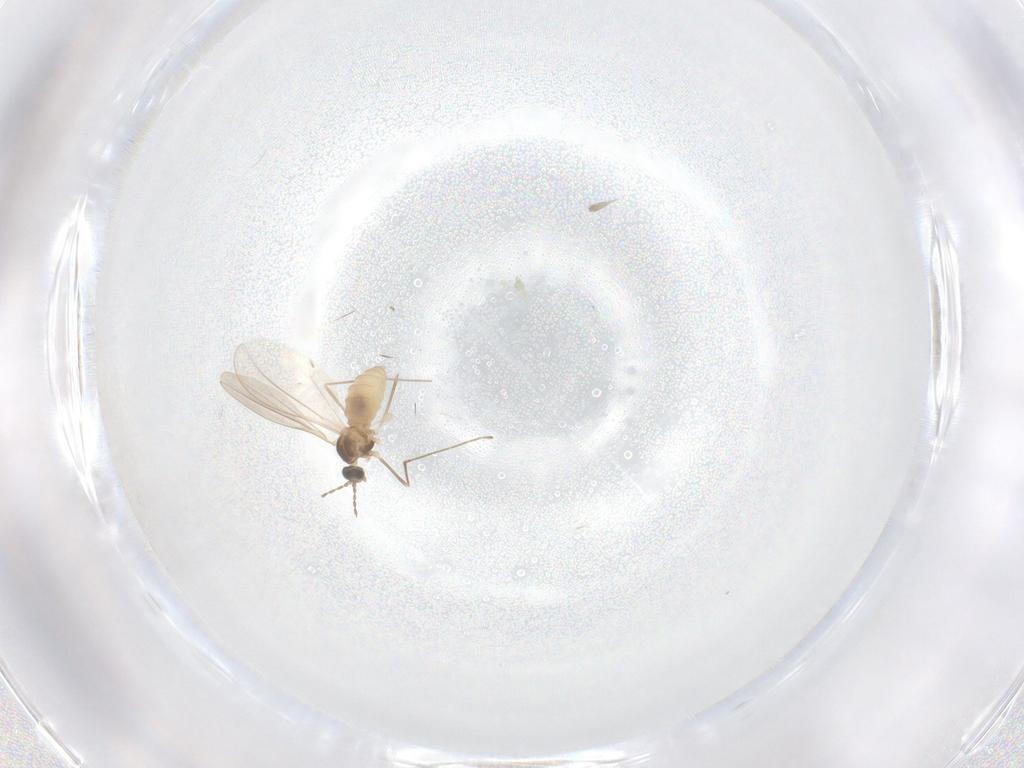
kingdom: Animalia
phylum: Arthropoda
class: Insecta
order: Diptera
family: Cecidomyiidae
